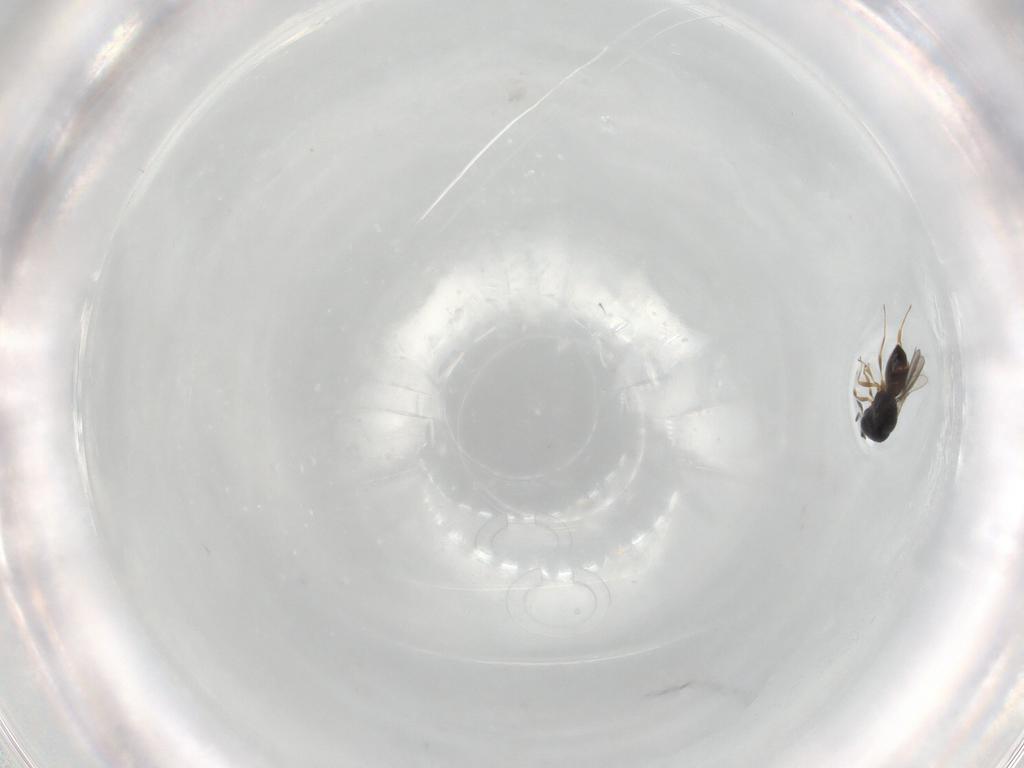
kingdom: Animalia
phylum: Arthropoda
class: Insecta
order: Hymenoptera
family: Scelionidae
